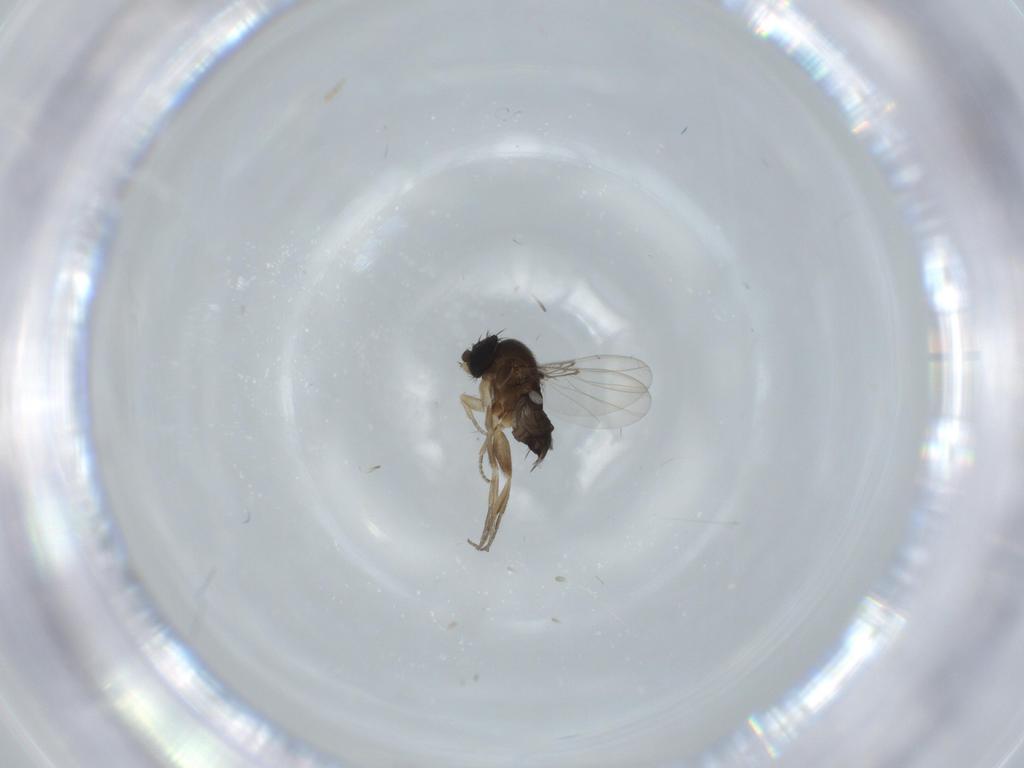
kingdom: Animalia
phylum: Arthropoda
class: Insecta
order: Diptera
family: Phoridae
